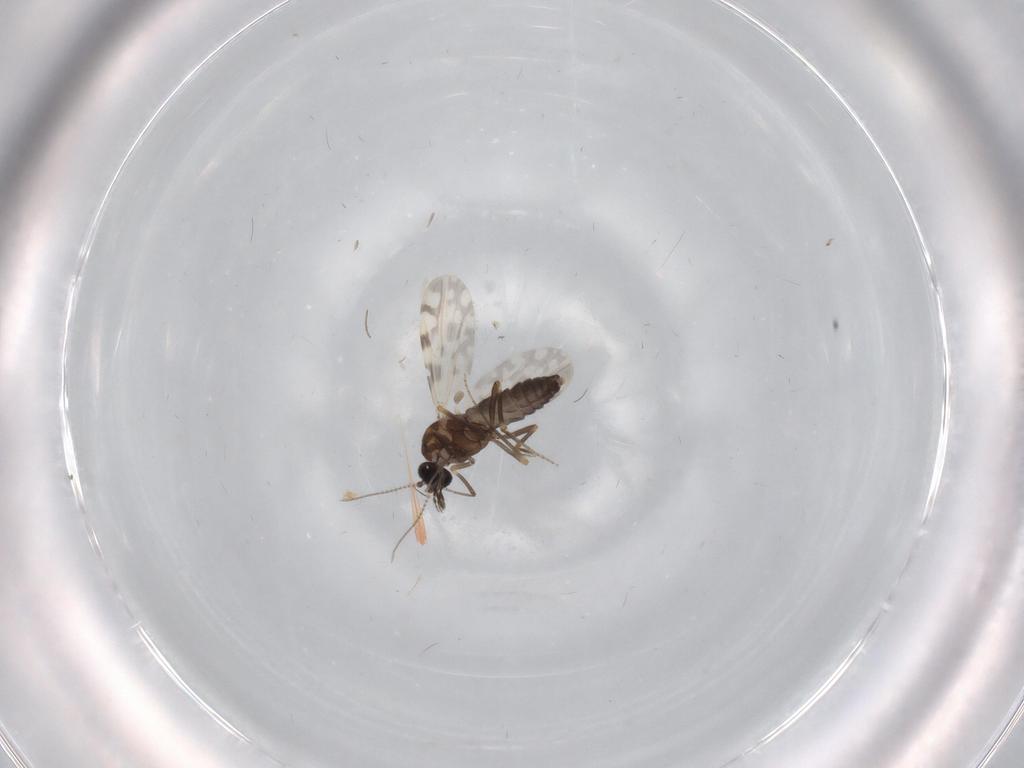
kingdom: Animalia
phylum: Arthropoda
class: Insecta
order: Diptera
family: Ceratopogonidae
